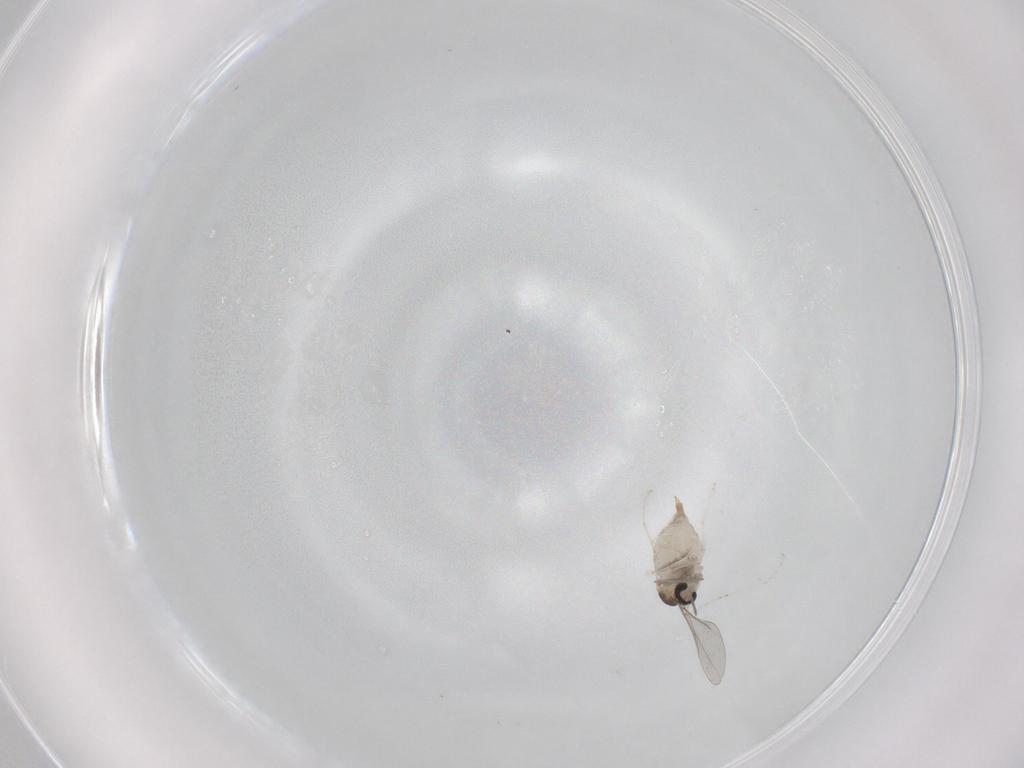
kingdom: Animalia
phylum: Arthropoda
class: Insecta
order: Diptera
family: Cecidomyiidae
